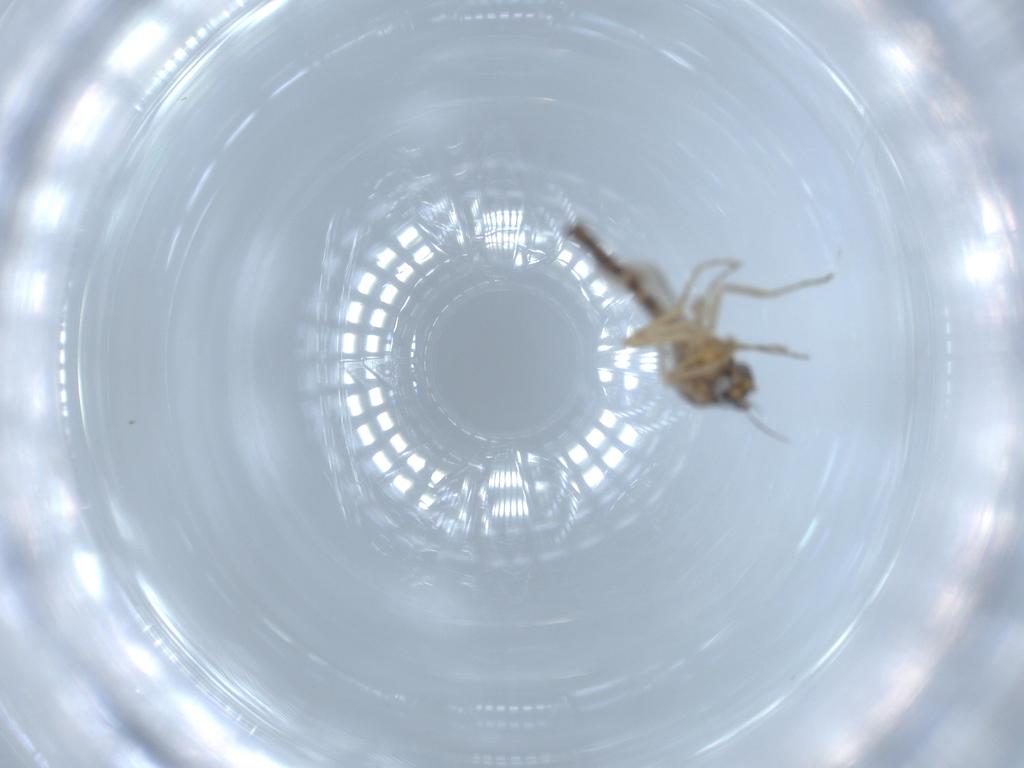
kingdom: Animalia
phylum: Arthropoda
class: Insecta
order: Diptera
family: Ceratopogonidae
